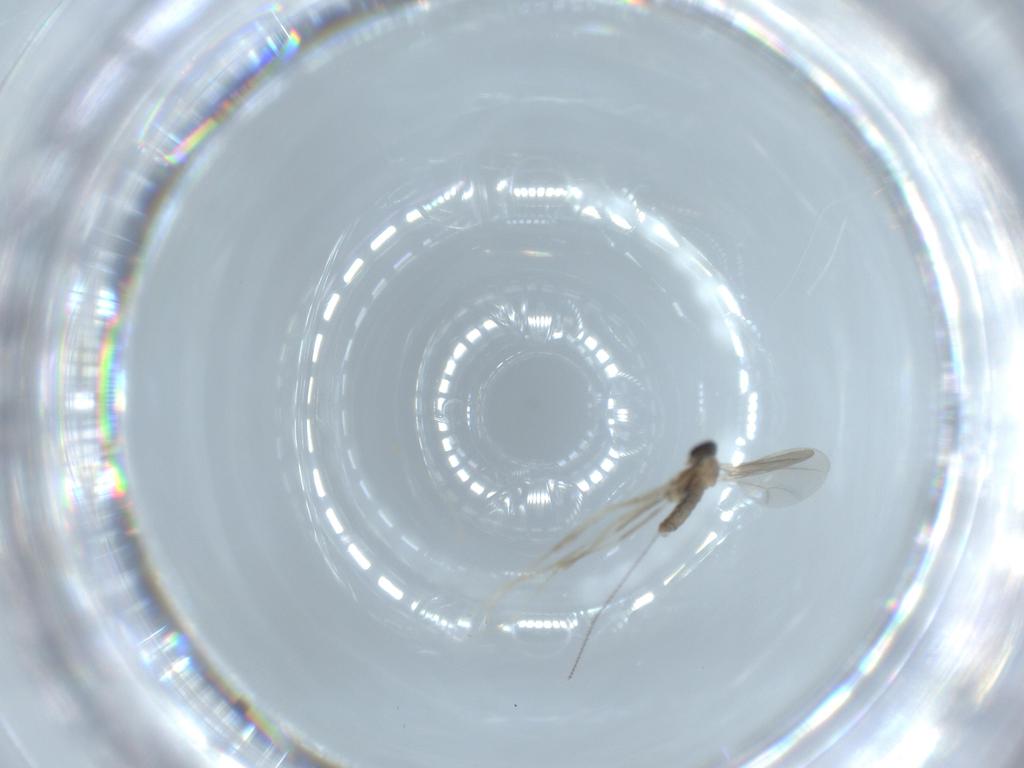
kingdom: Animalia
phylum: Arthropoda
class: Insecta
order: Diptera
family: Cecidomyiidae
